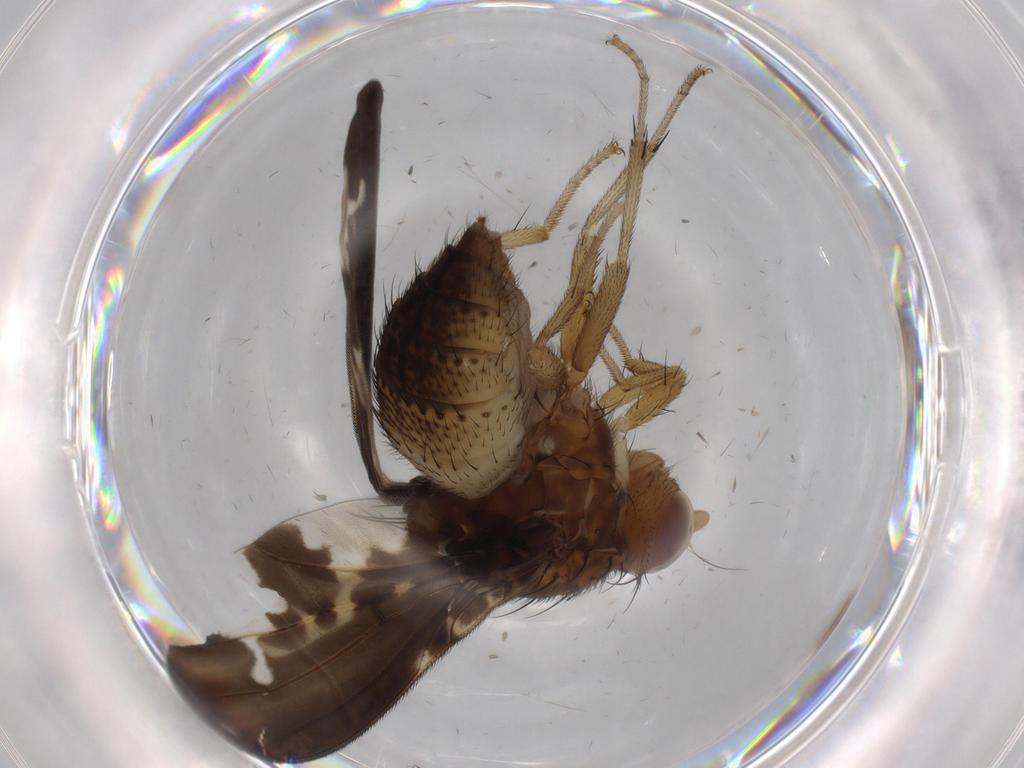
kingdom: Animalia
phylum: Arthropoda
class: Insecta
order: Diptera
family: Chironomidae
